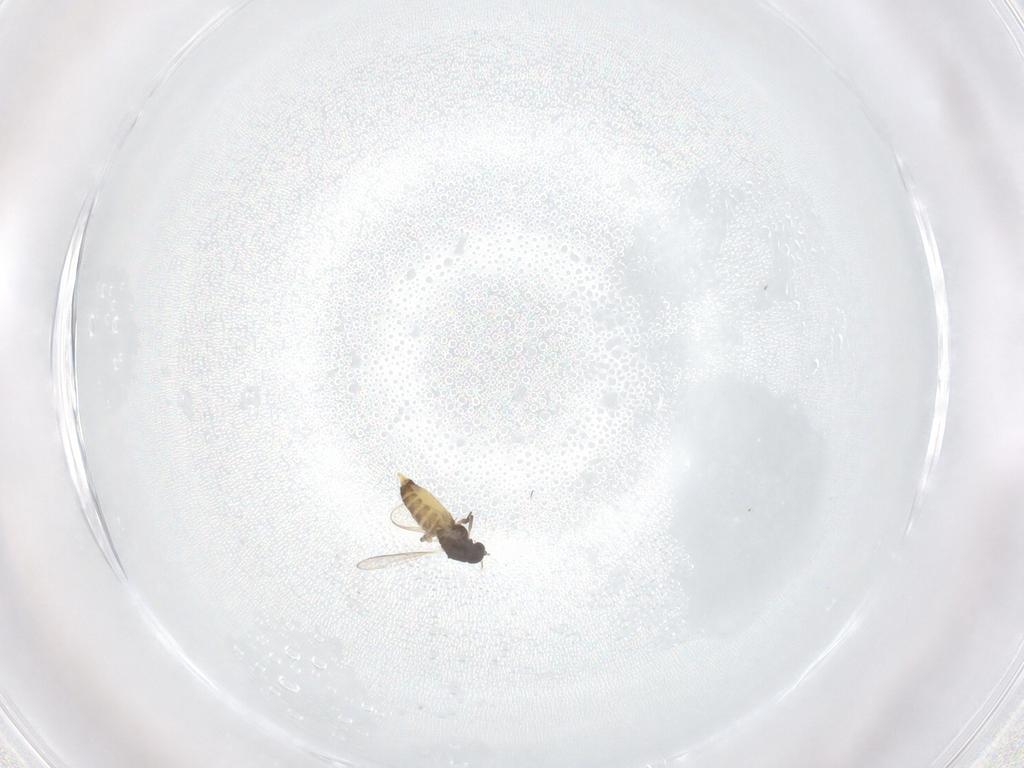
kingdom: Animalia
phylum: Arthropoda
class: Insecta
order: Diptera
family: Chironomidae
